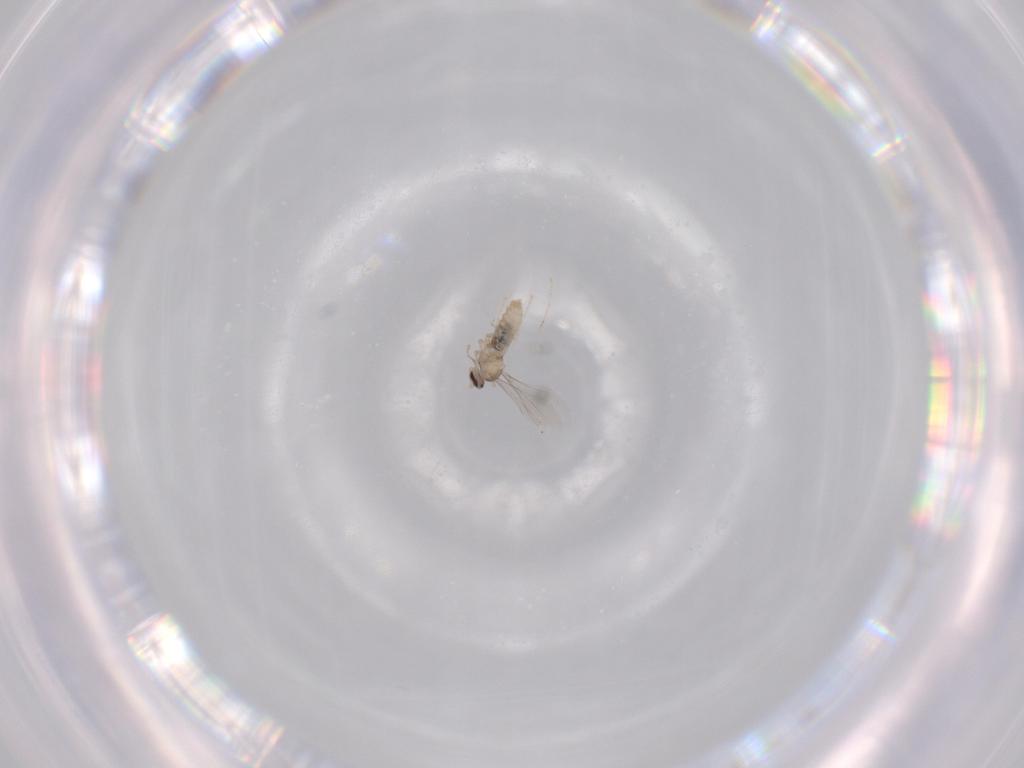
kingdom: Animalia
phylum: Arthropoda
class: Insecta
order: Diptera
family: Cecidomyiidae
